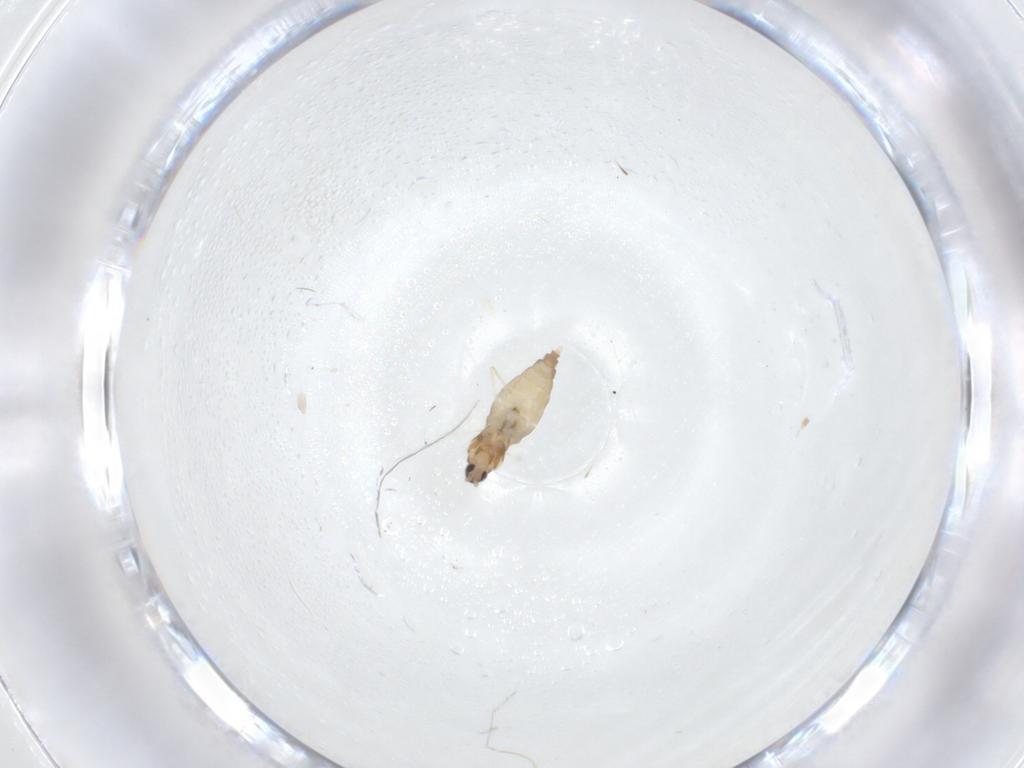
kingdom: Animalia
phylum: Arthropoda
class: Insecta
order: Diptera
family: Cecidomyiidae
